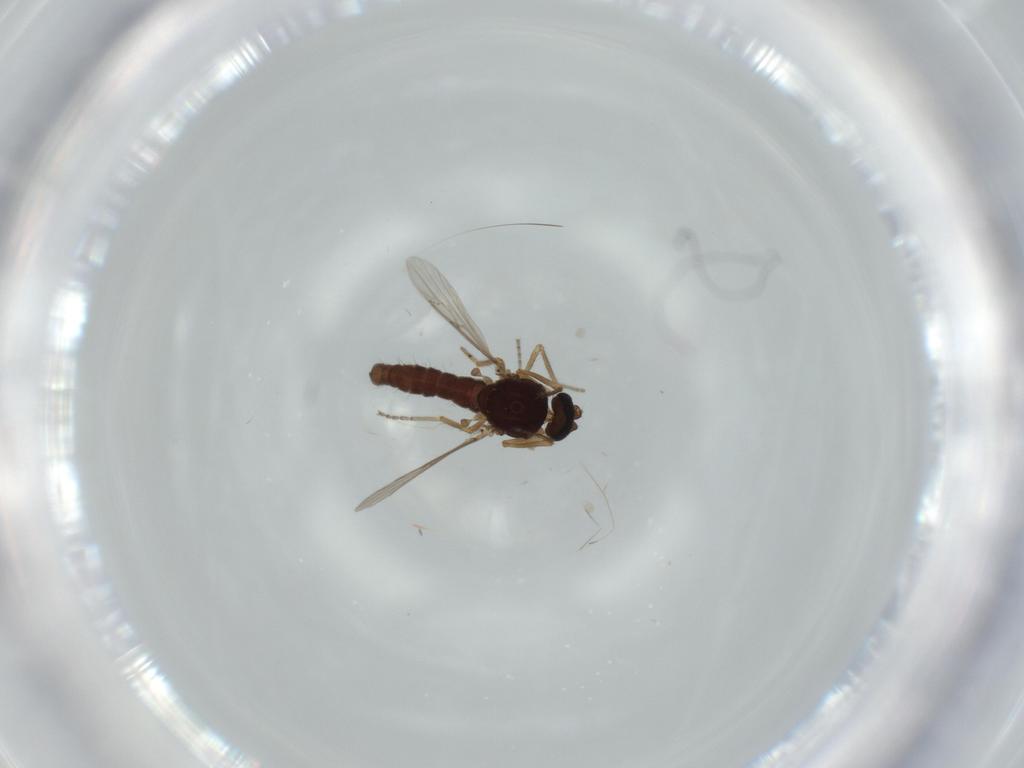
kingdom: Animalia
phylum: Arthropoda
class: Insecta
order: Diptera
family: Ceratopogonidae
